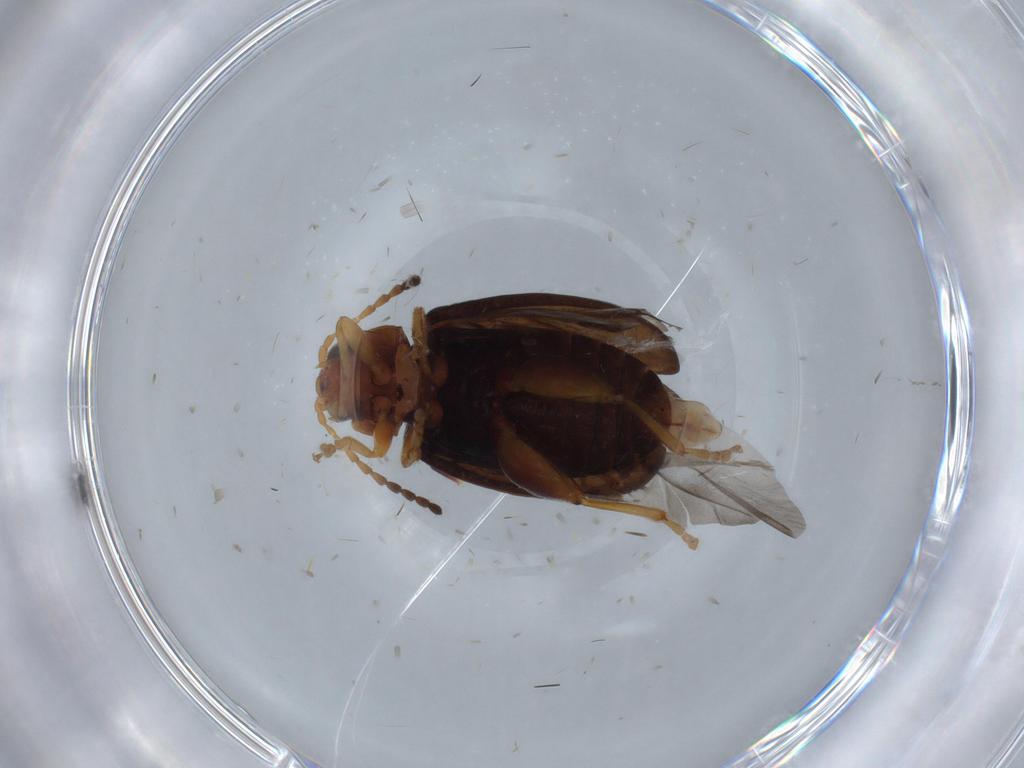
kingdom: Animalia
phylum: Arthropoda
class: Insecta
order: Coleoptera
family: Chrysomelidae
